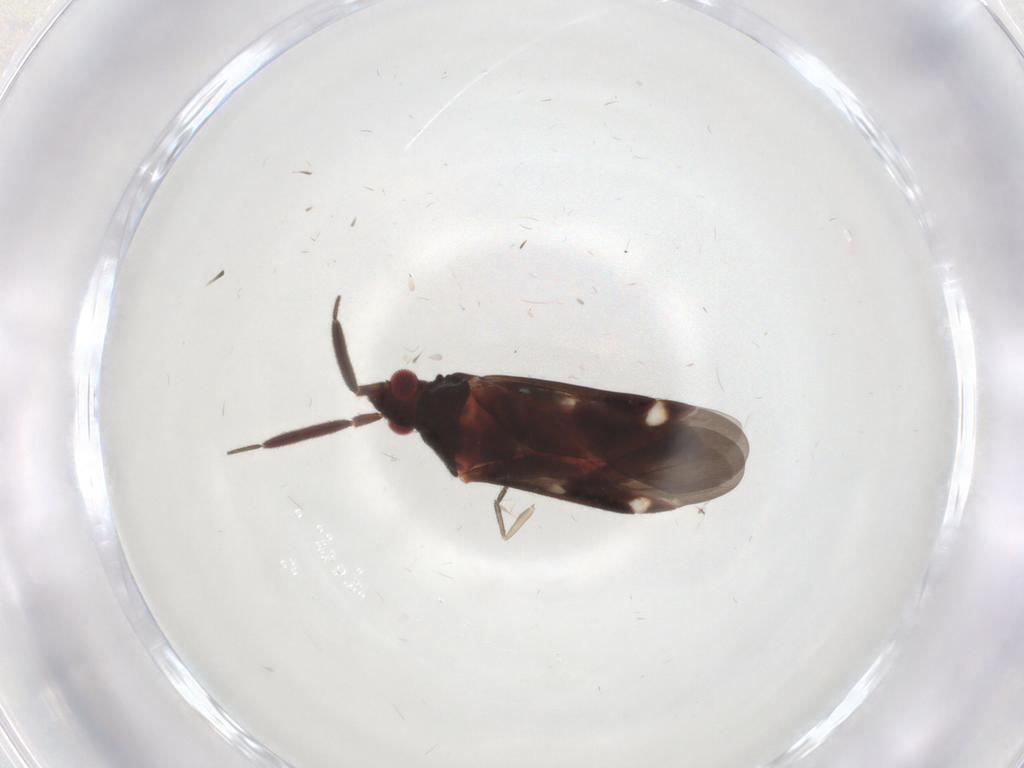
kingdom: Animalia
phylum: Arthropoda
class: Insecta
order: Hemiptera
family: Miridae
